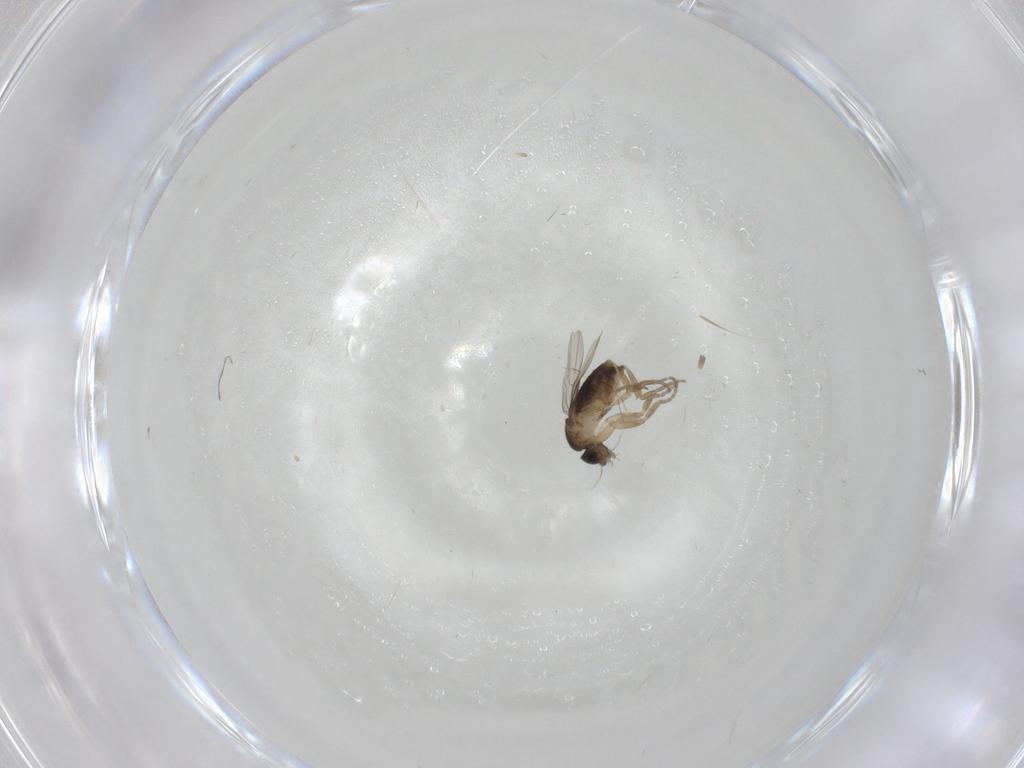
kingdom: Animalia
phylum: Arthropoda
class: Insecta
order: Diptera
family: Phoridae
